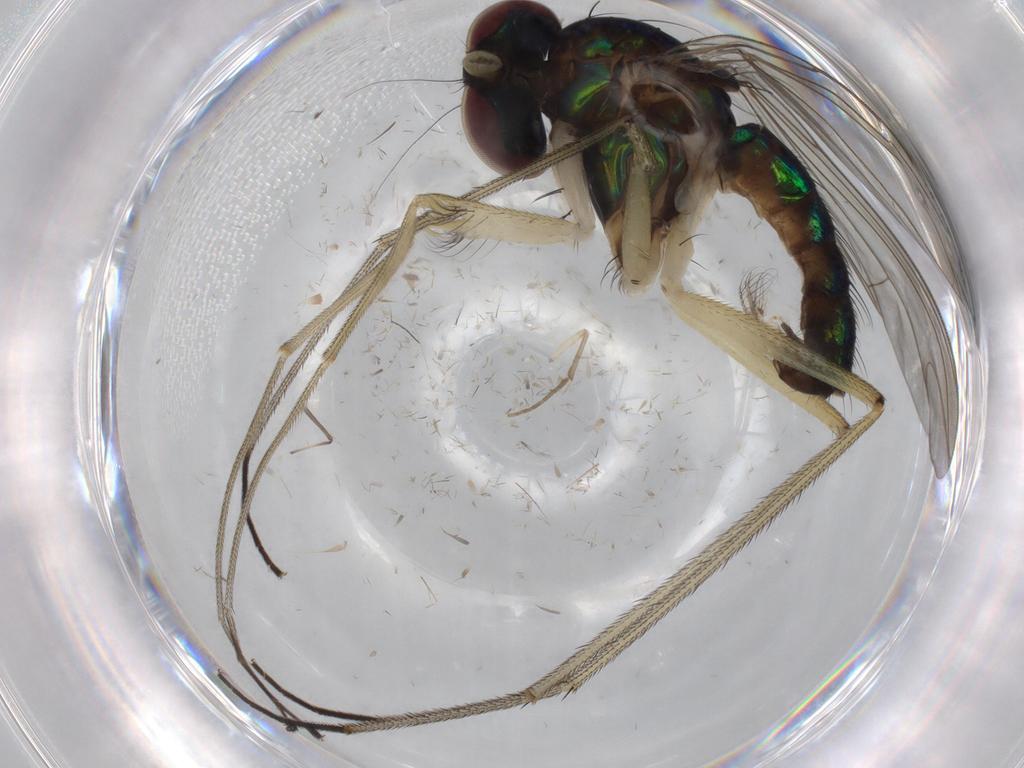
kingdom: Animalia
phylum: Arthropoda
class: Insecta
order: Diptera
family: Dolichopodidae
